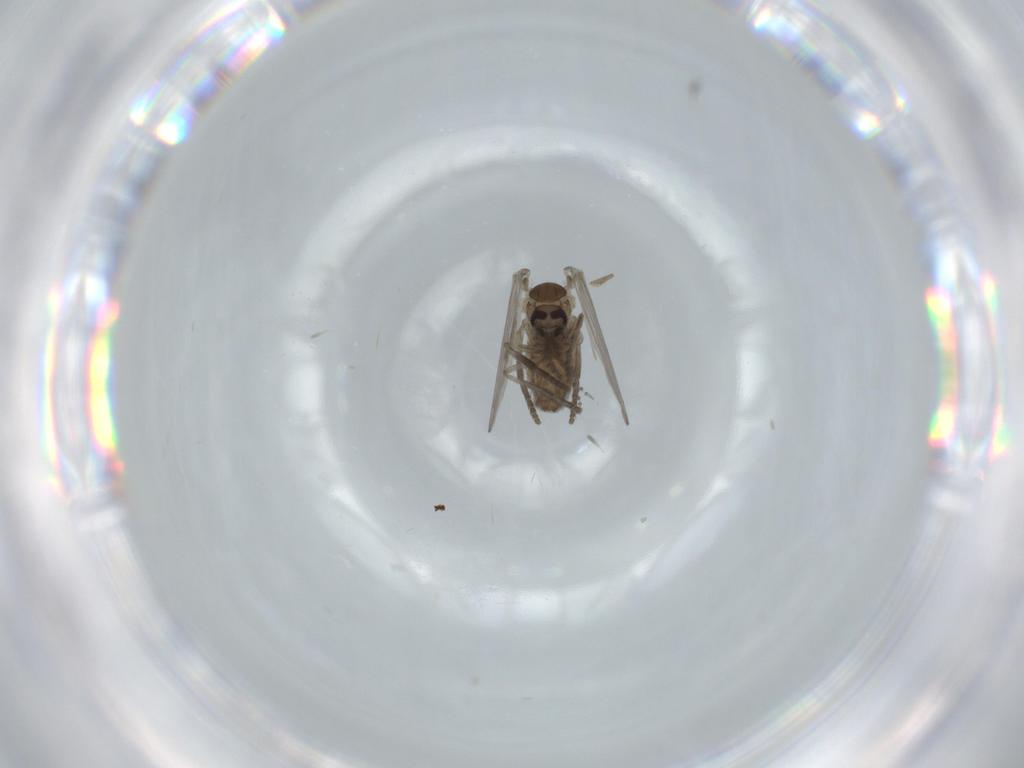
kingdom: Animalia
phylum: Arthropoda
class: Insecta
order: Diptera
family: Psychodidae
